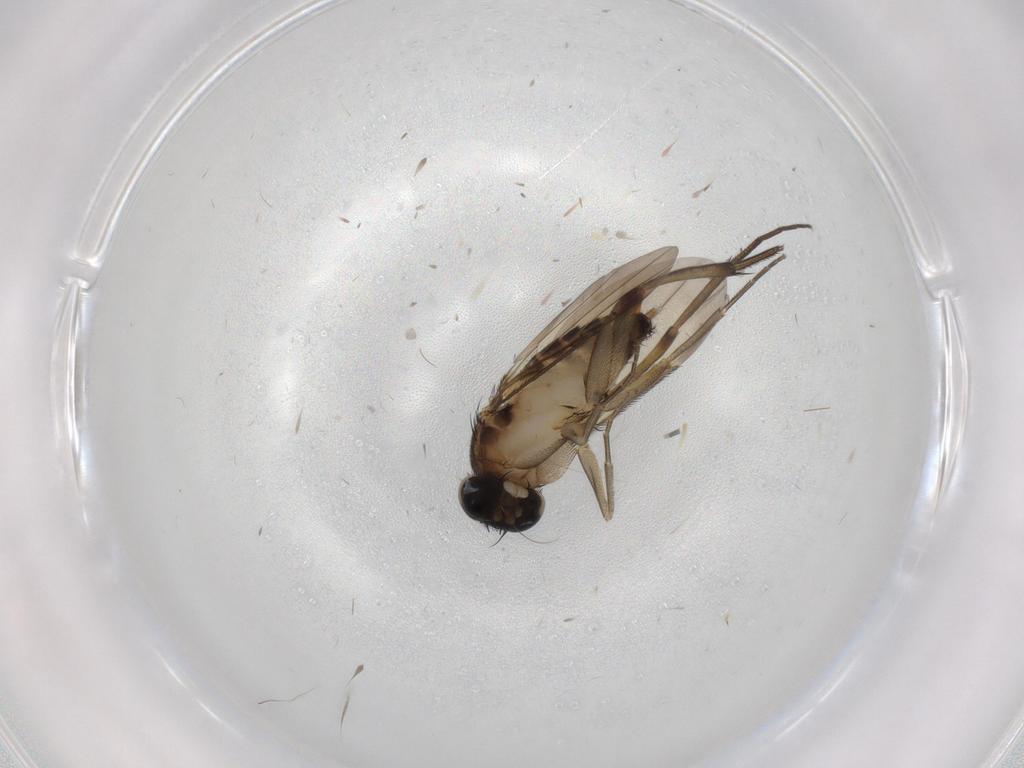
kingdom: Animalia
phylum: Arthropoda
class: Insecta
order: Diptera
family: Phoridae
